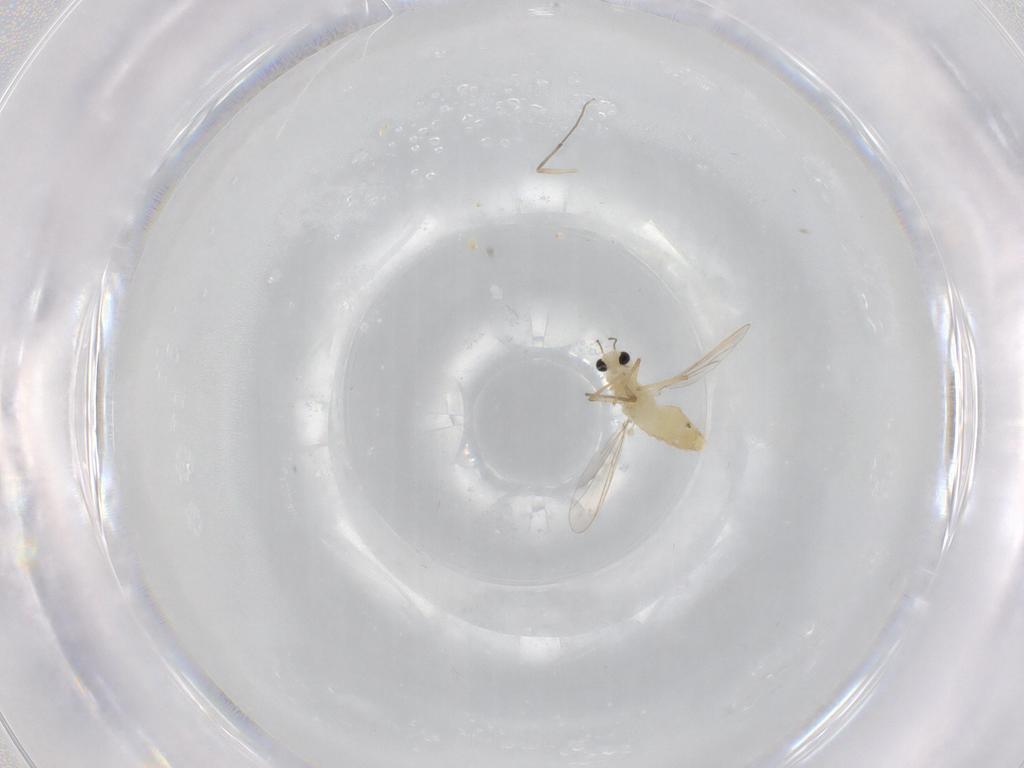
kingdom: Animalia
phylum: Arthropoda
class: Insecta
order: Diptera
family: Chironomidae
